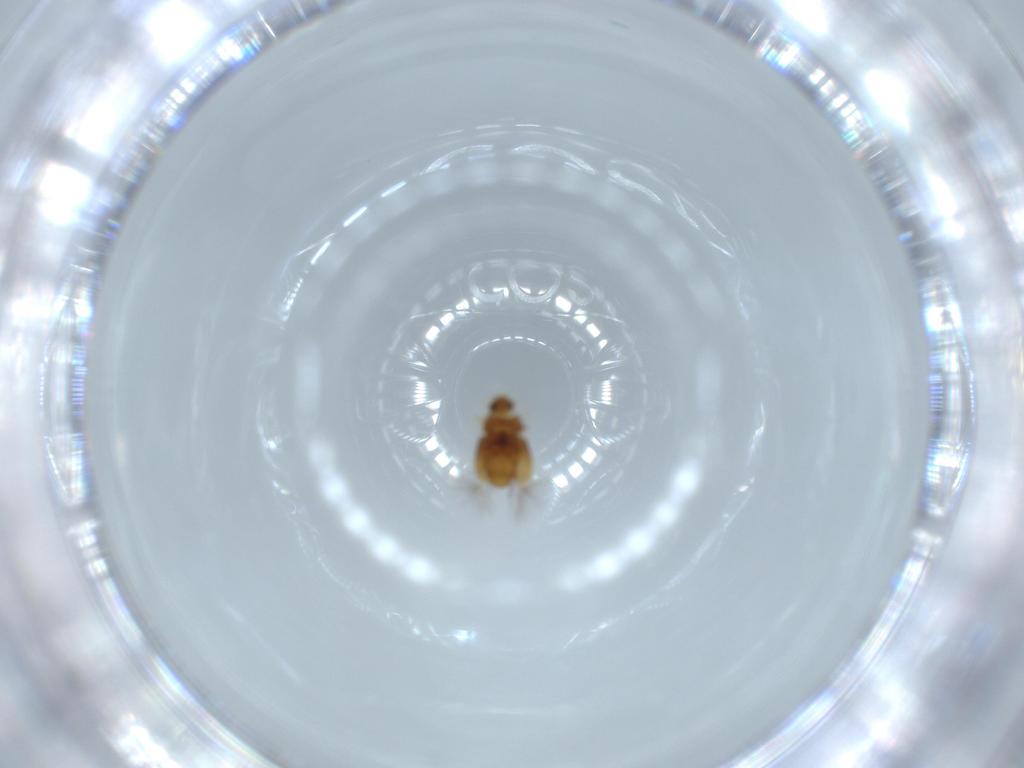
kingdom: Animalia
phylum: Arthropoda
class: Insecta
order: Coleoptera
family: Ptiliidae
